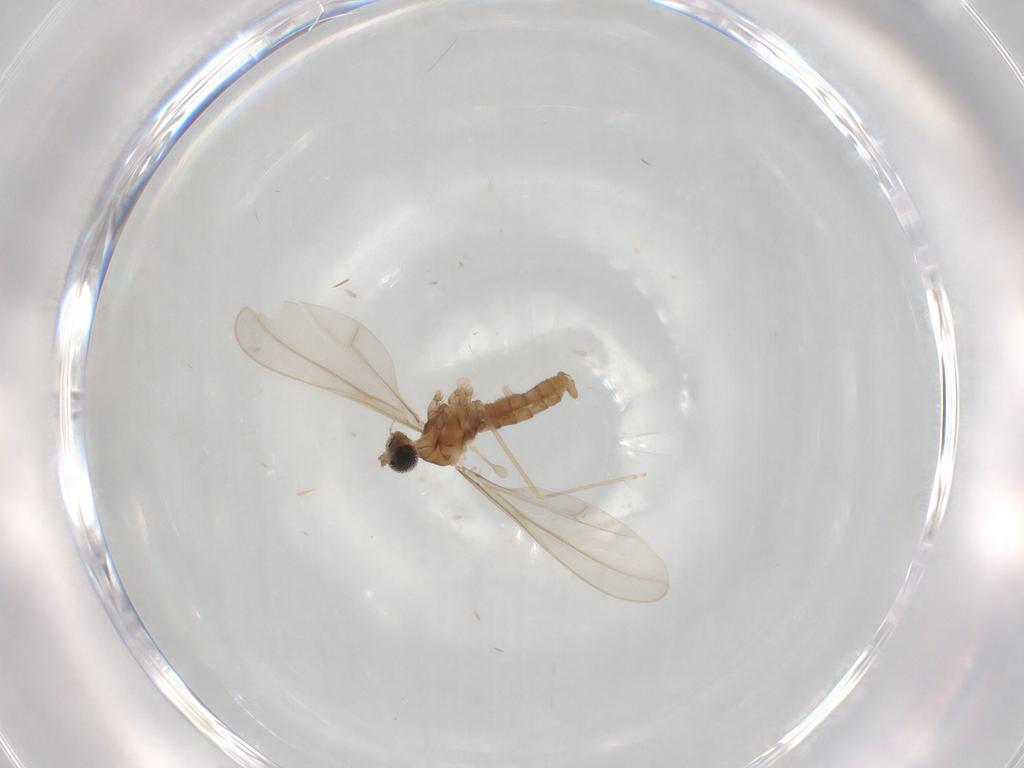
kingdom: Animalia
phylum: Arthropoda
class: Insecta
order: Diptera
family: Cecidomyiidae
